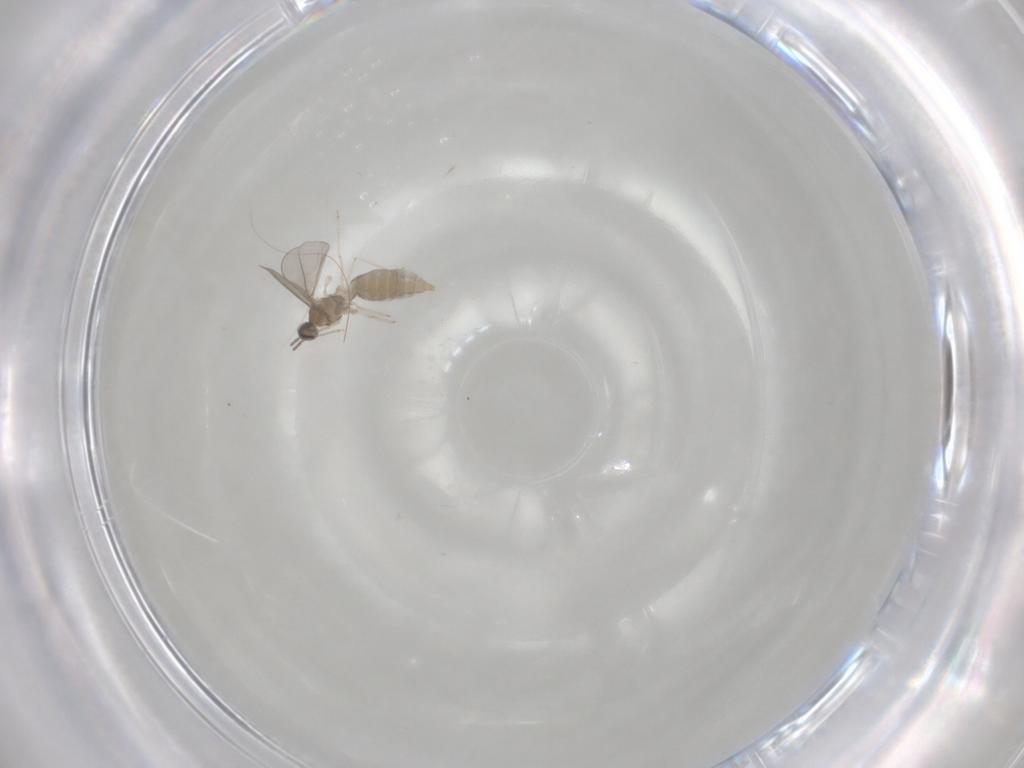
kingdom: Animalia
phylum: Arthropoda
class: Insecta
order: Diptera
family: Cecidomyiidae
